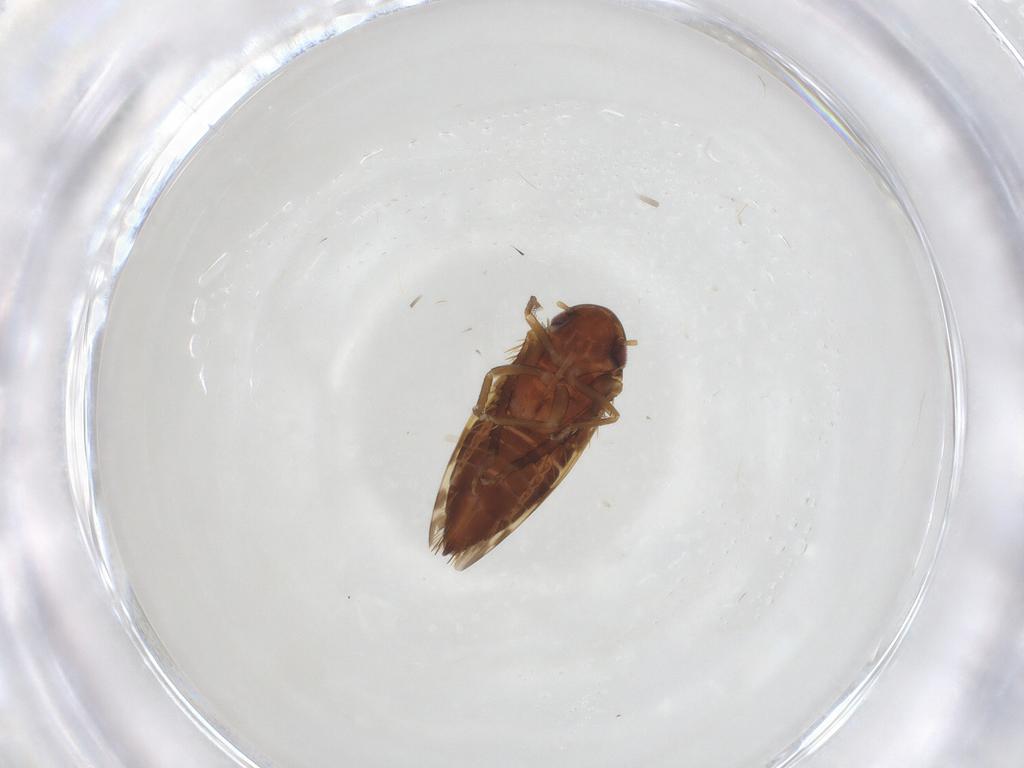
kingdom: Animalia
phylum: Arthropoda
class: Insecta
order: Hemiptera
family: Cicadellidae
